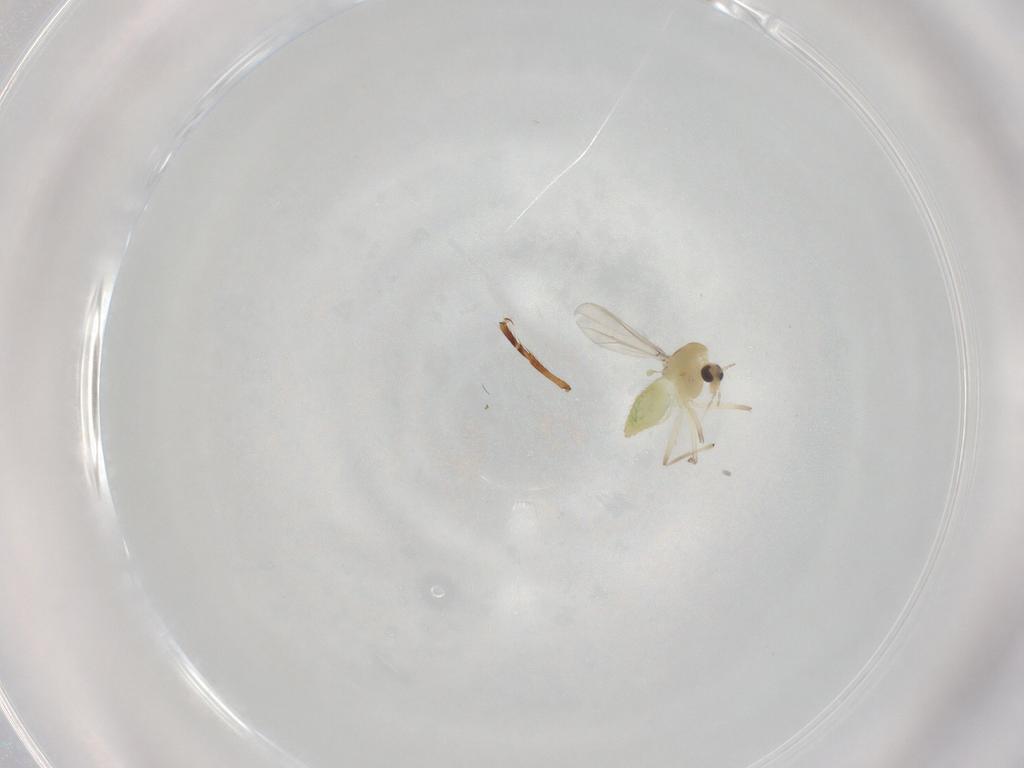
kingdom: Animalia
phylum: Arthropoda
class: Insecta
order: Diptera
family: Chironomidae
